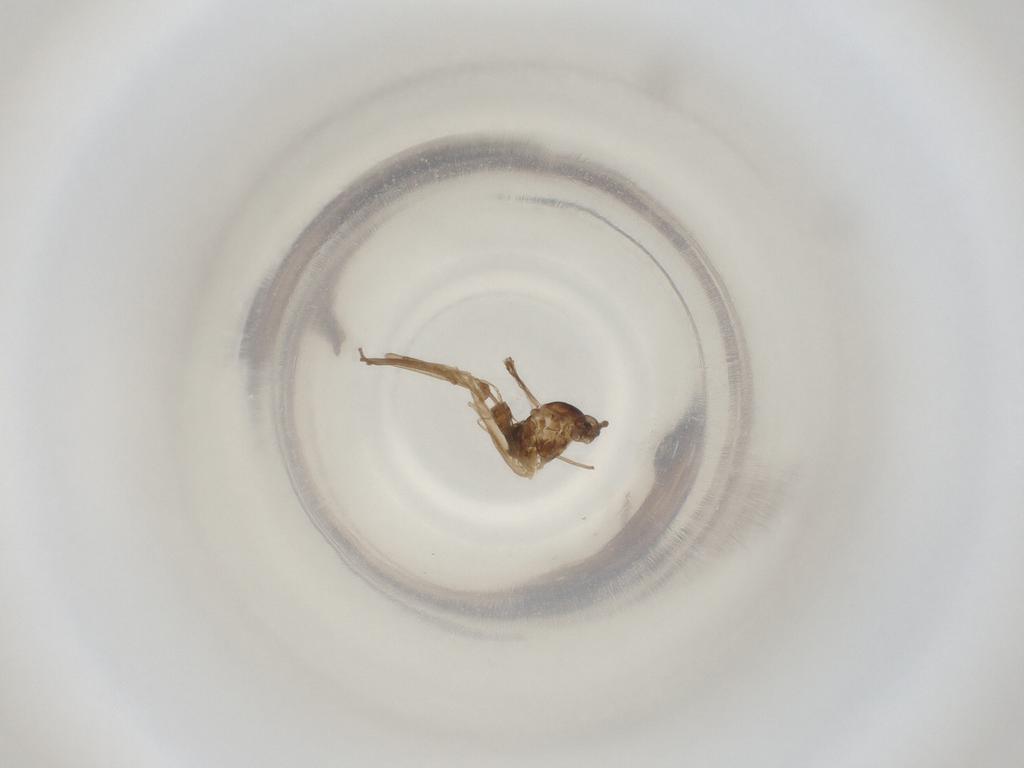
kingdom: Animalia
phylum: Arthropoda
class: Insecta
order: Diptera
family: Cecidomyiidae
